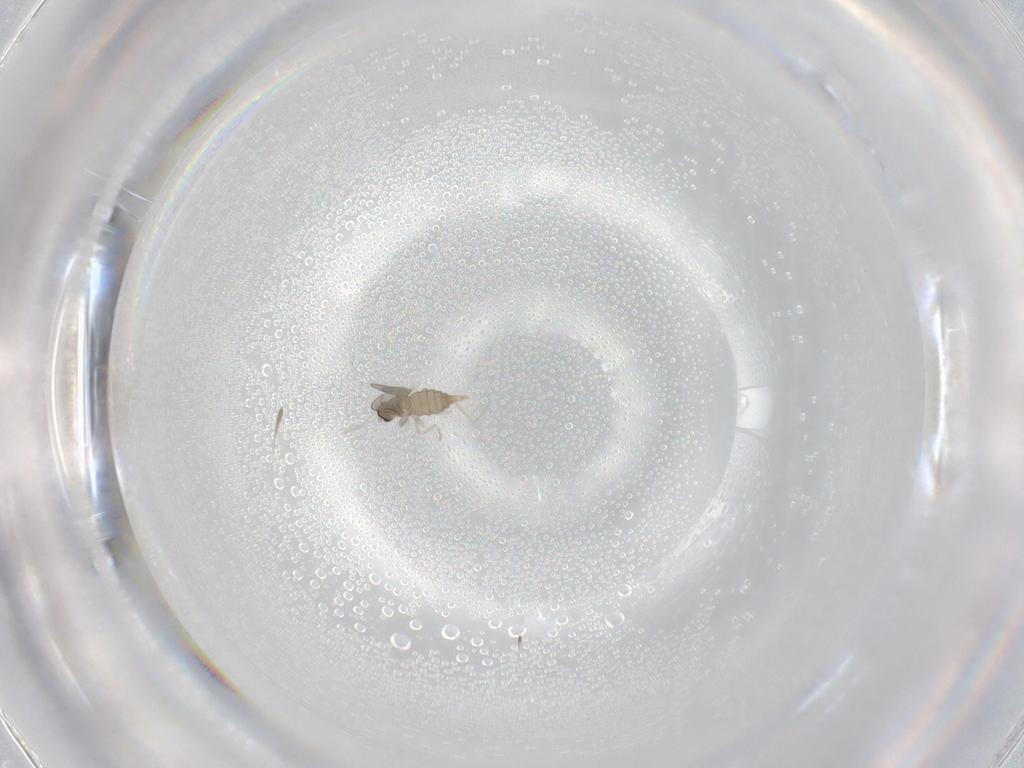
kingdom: Animalia
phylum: Arthropoda
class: Insecta
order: Diptera
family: Cecidomyiidae
